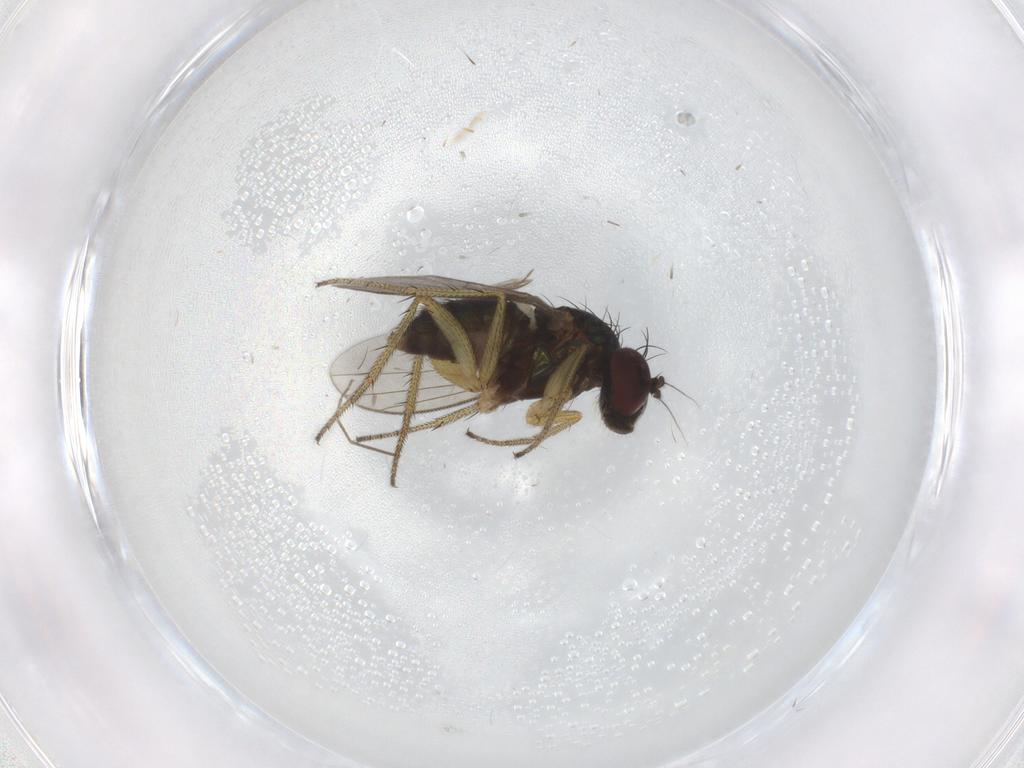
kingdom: Animalia
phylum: Arthropoda
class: Insecta
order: Diptera
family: Chironomidae
